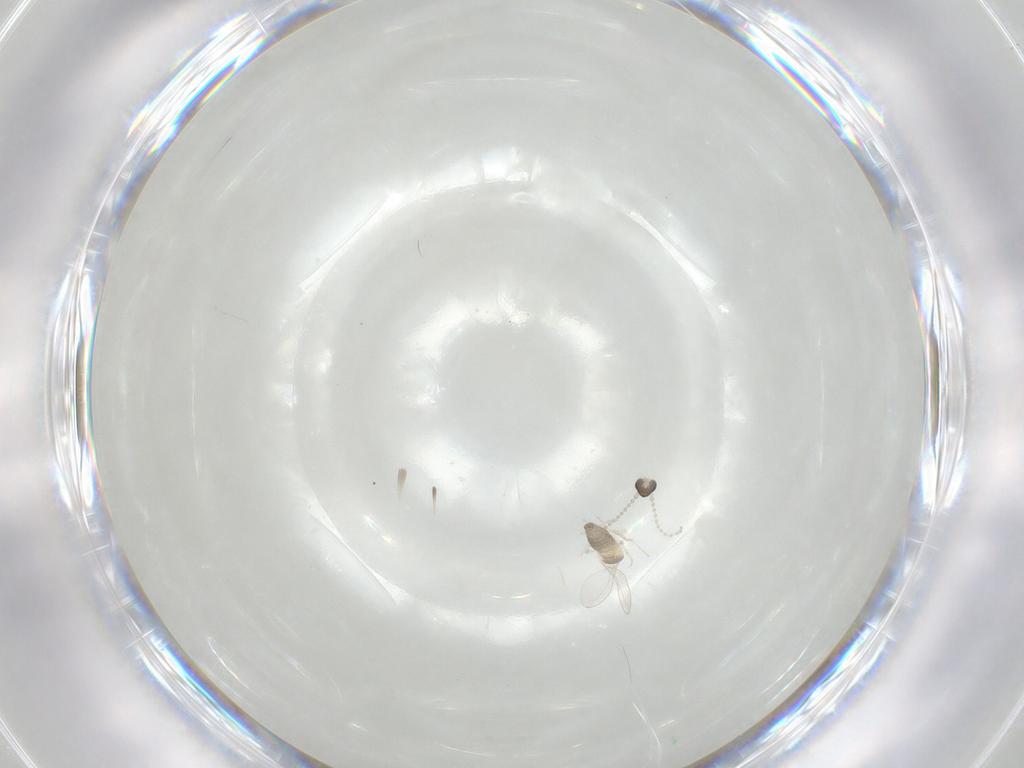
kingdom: Animalia
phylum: Arthropoda
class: Insecta
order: Diptera
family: Cecidomyiidae
